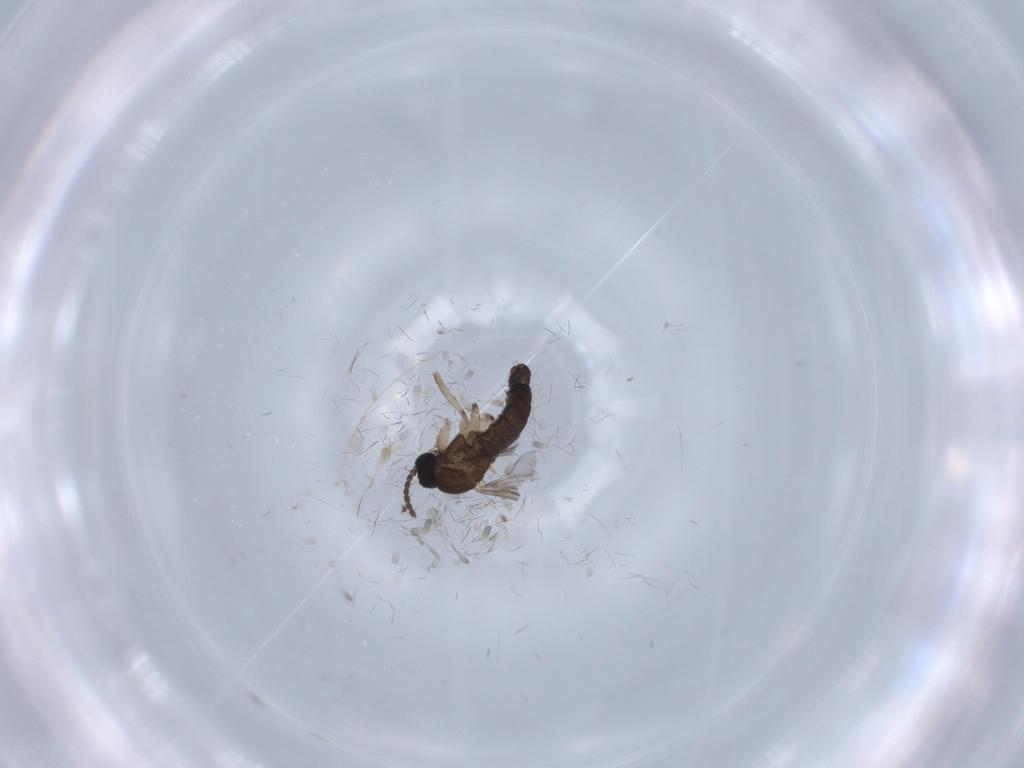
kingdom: Animalia
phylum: Arthropoda
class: Insecta
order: Diptera
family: Sciaridae
